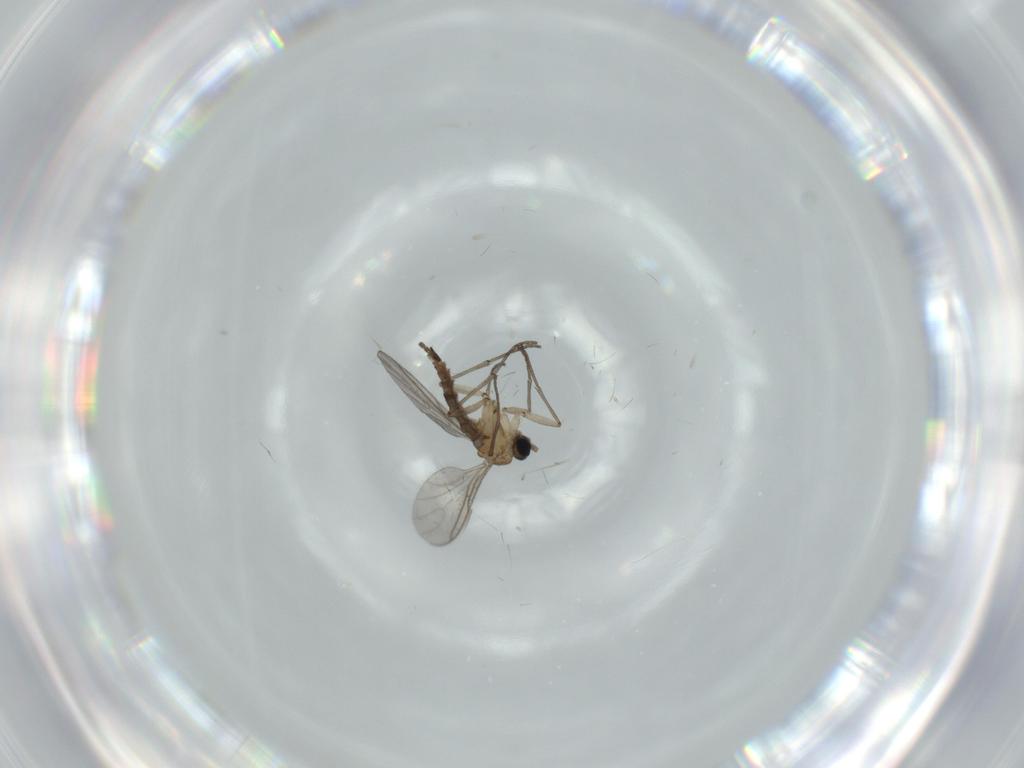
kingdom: Animalia
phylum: Arthropoda
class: Insecta
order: Diptera
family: Sciaridae
